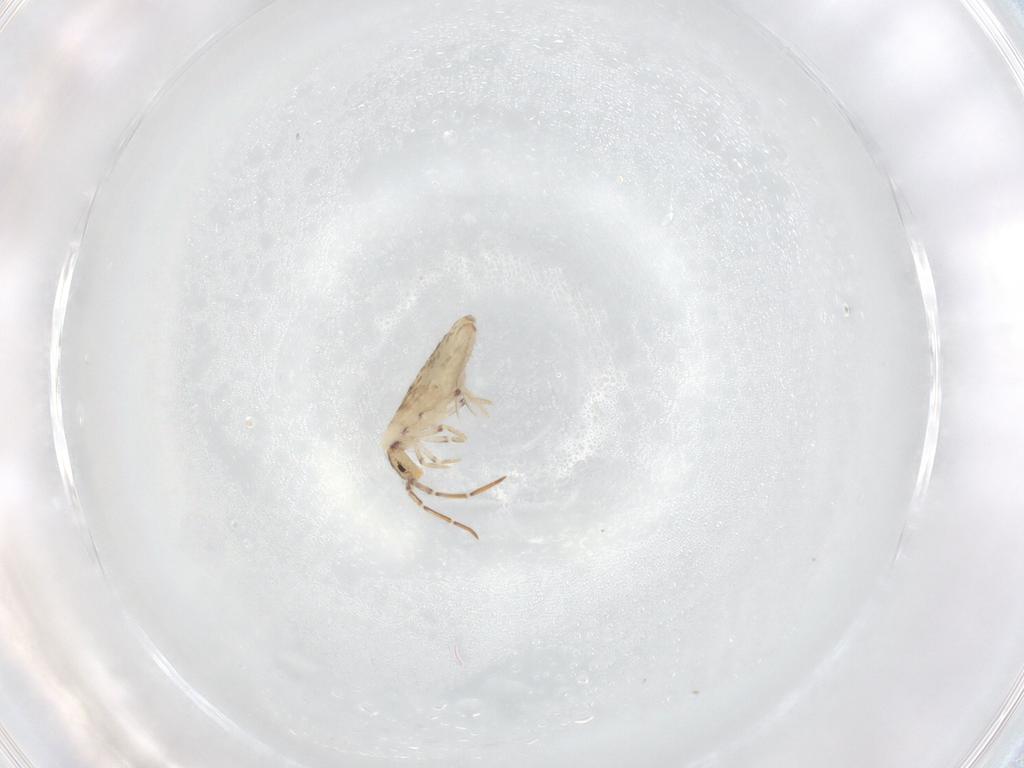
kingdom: Animalia
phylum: Arthropoda
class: Collembola
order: Entomobryomorpha
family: Entomobryidae
